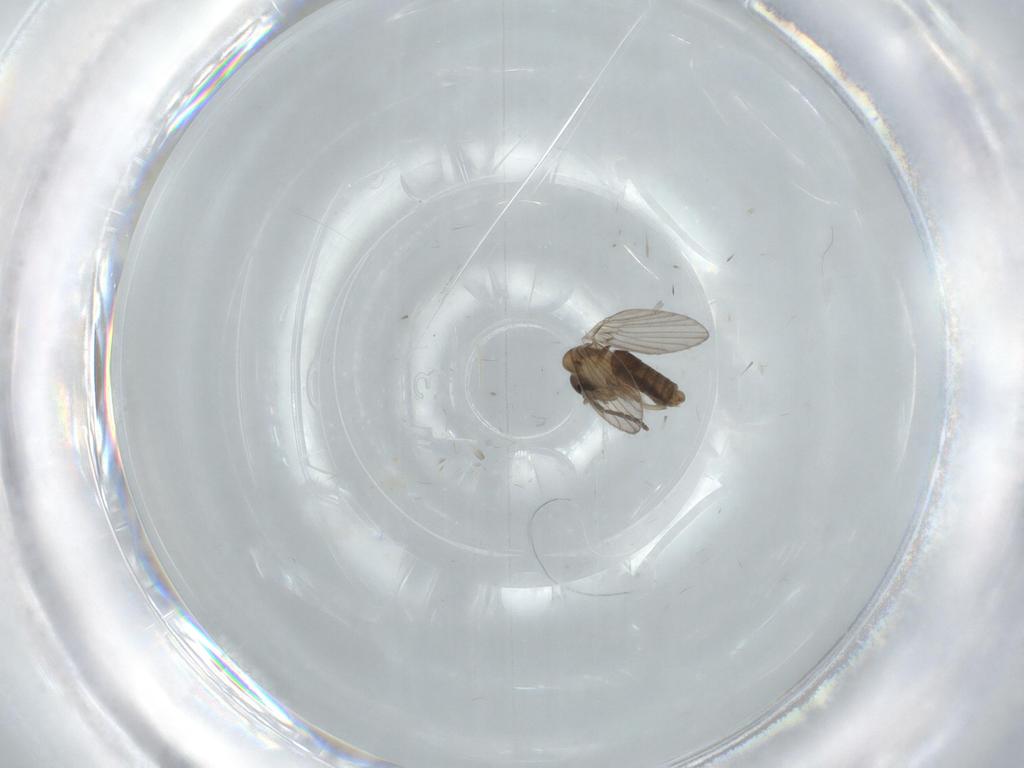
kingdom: Animalia
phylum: Arthropoda
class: Insecta
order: Diptera
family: Psychodidae
